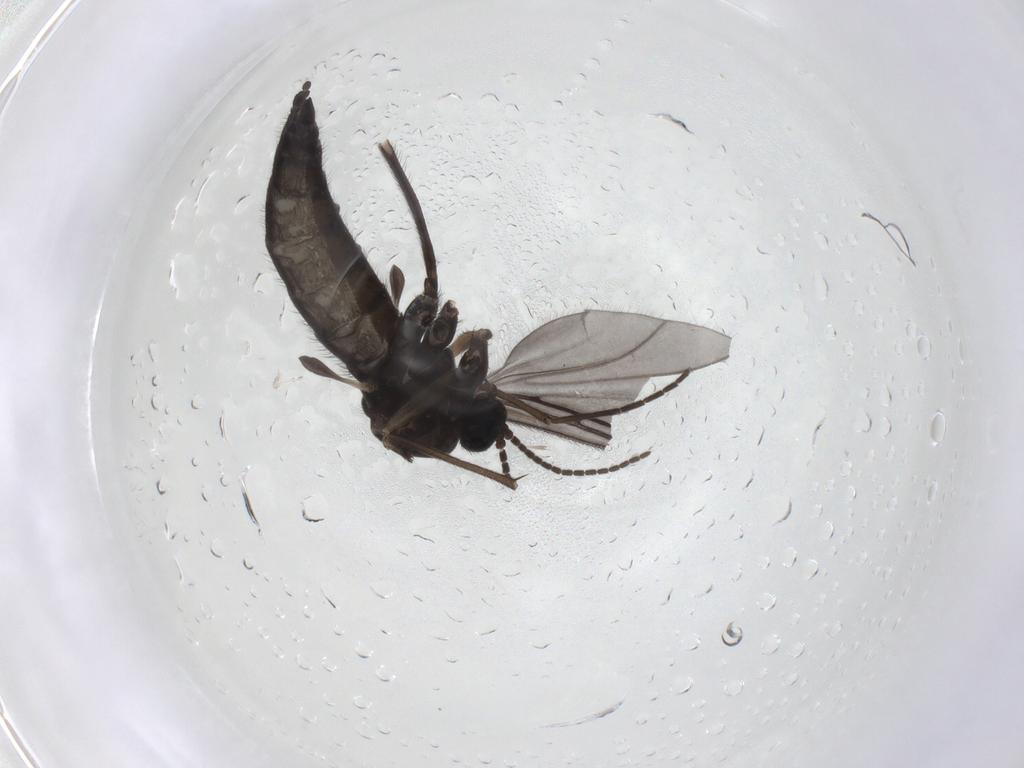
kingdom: Animalia
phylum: Arthropoda
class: Insecta
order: Diptera
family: Sciaridae
